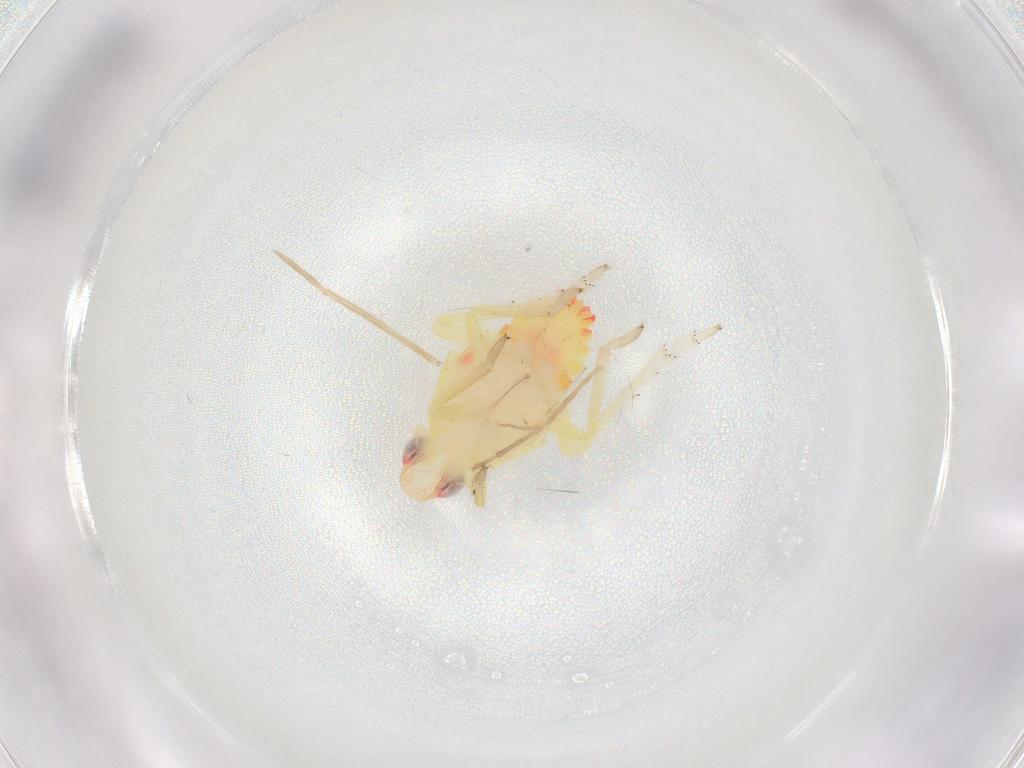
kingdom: Animalia
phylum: Arthropoda
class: Insecta
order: Hemiptera
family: Tropiduchidae
